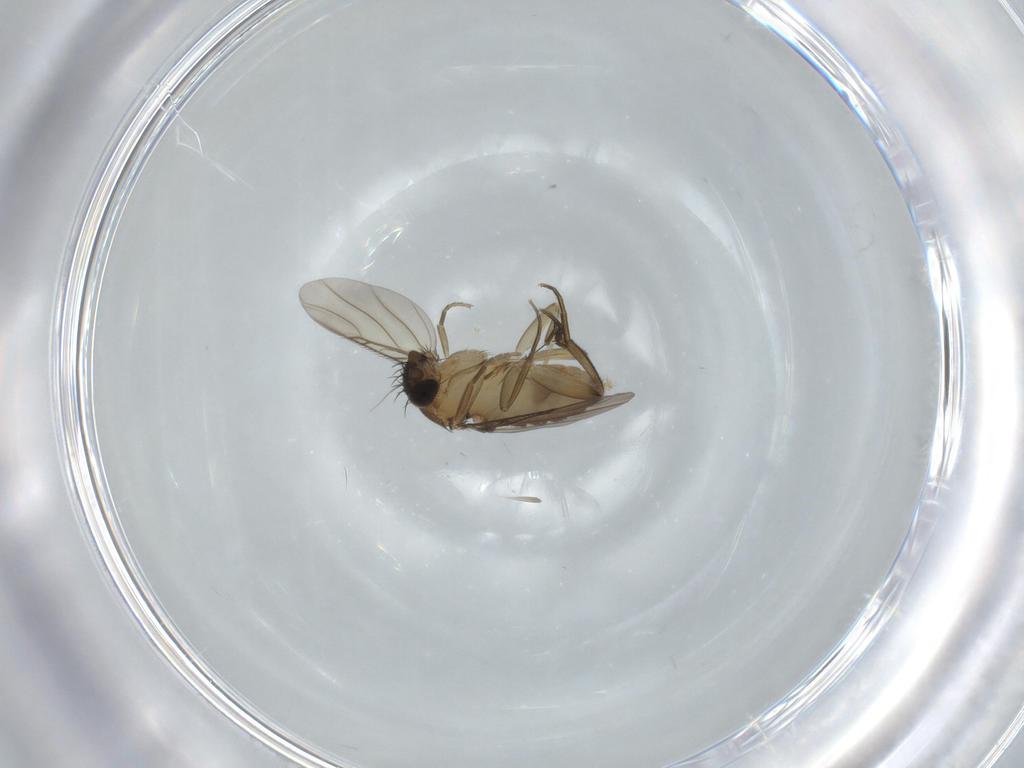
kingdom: Animalia
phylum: Arthropoda
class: Insecta
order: Diptera
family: Phoridae
